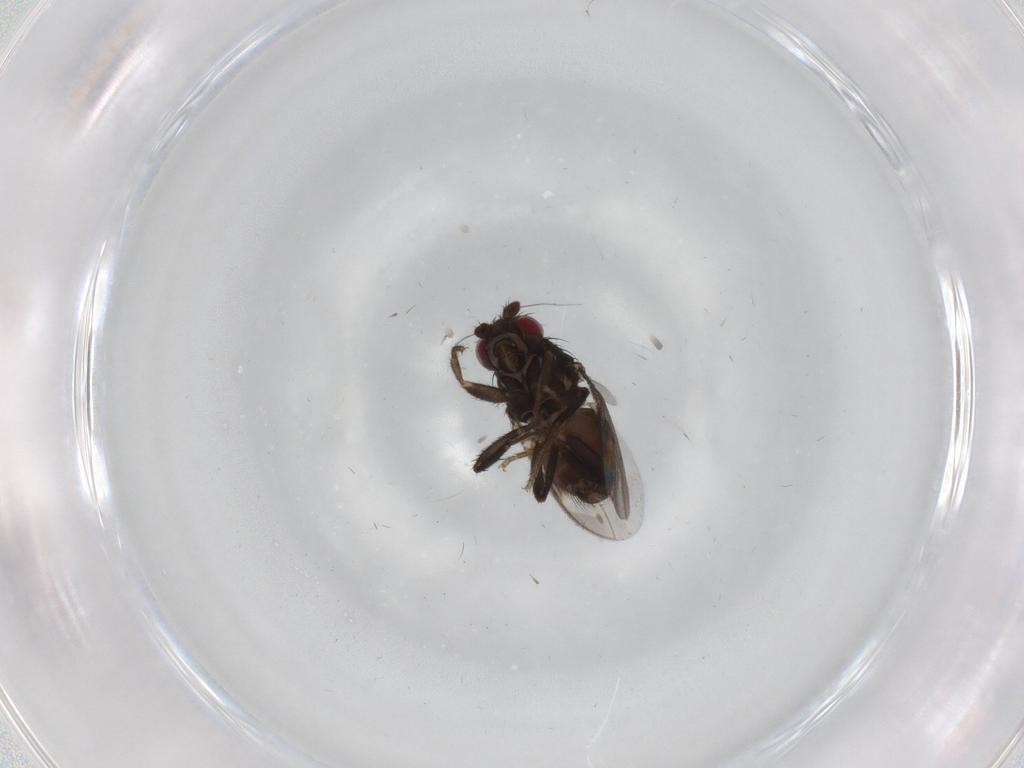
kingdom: Animalia
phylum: Arthropoda
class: Insecta
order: Diptera
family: Sphaeroceridae
